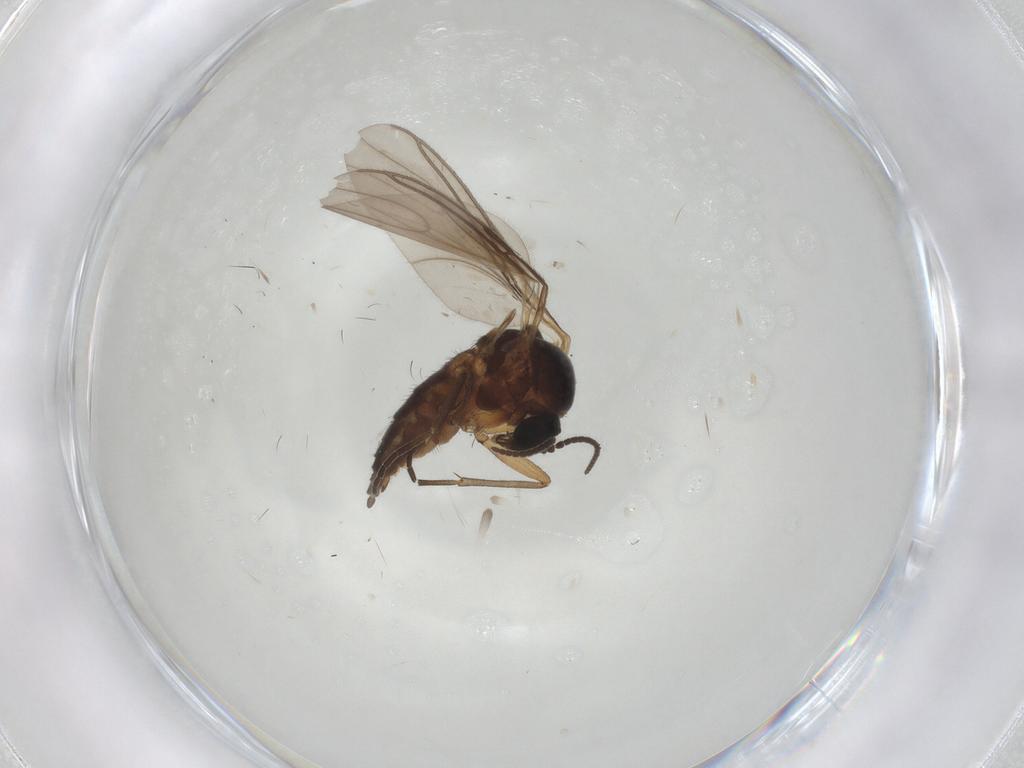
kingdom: Animalia
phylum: Arthropoda
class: Insecta
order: Diptera
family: Sciaridae
